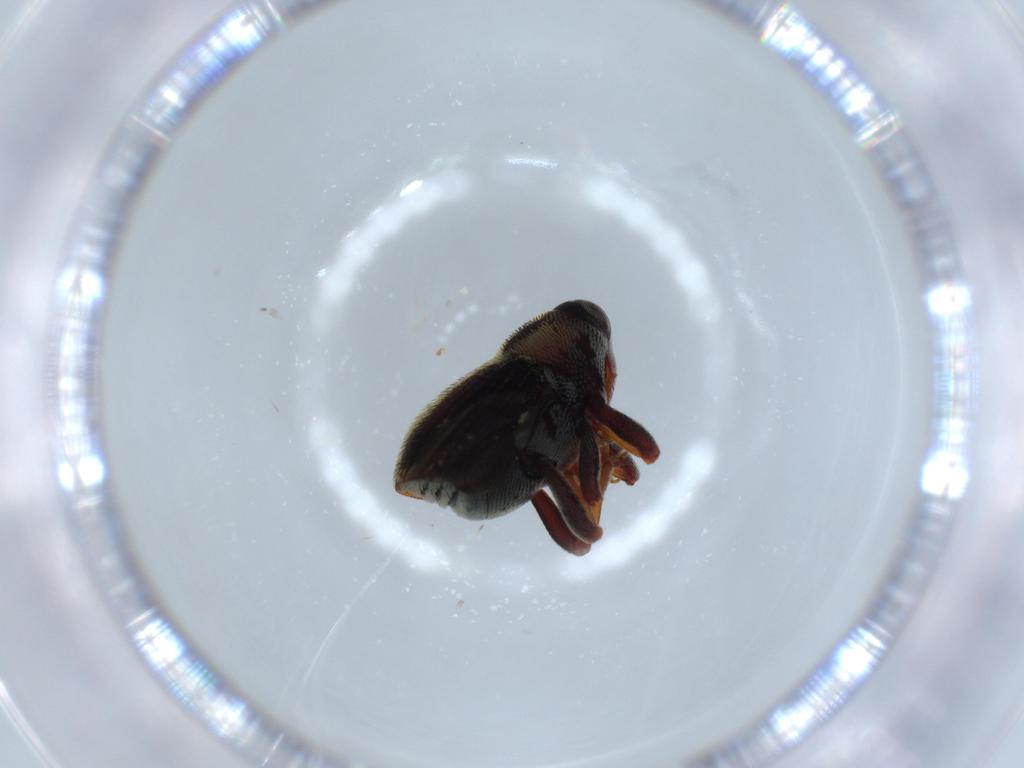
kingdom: Animalia
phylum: Arthropoda
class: Insecta
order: Coleoptera
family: Curculionidae
